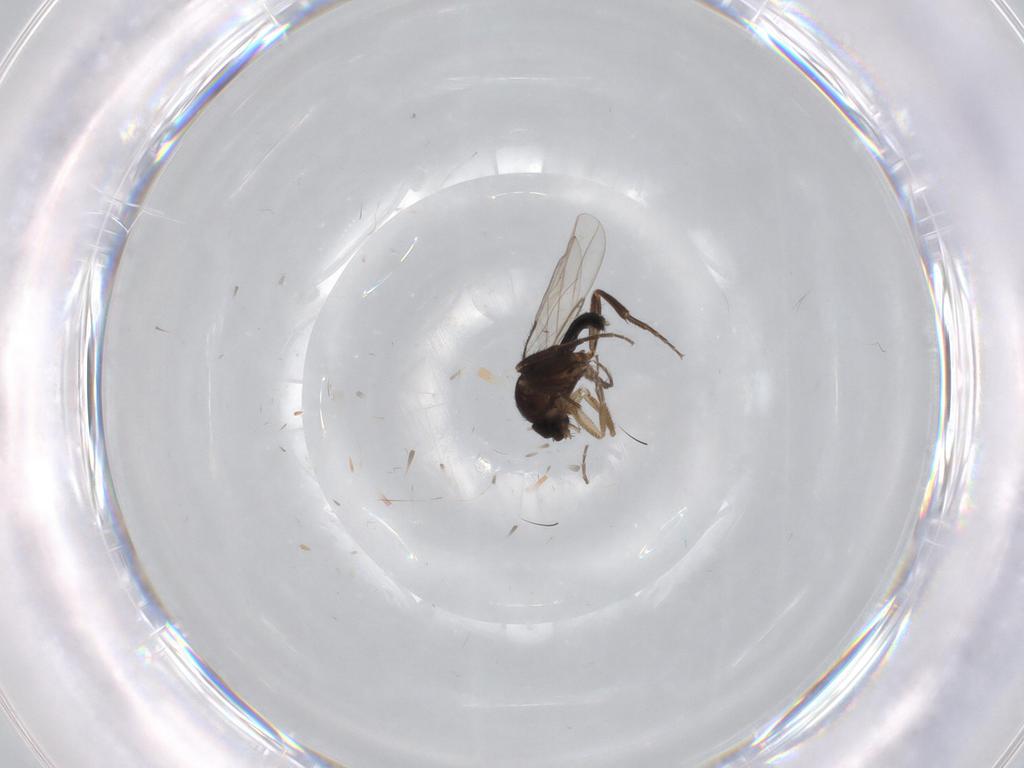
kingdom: Animalia
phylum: Arthropoda
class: Insecta
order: Diptera
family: Phoridae
